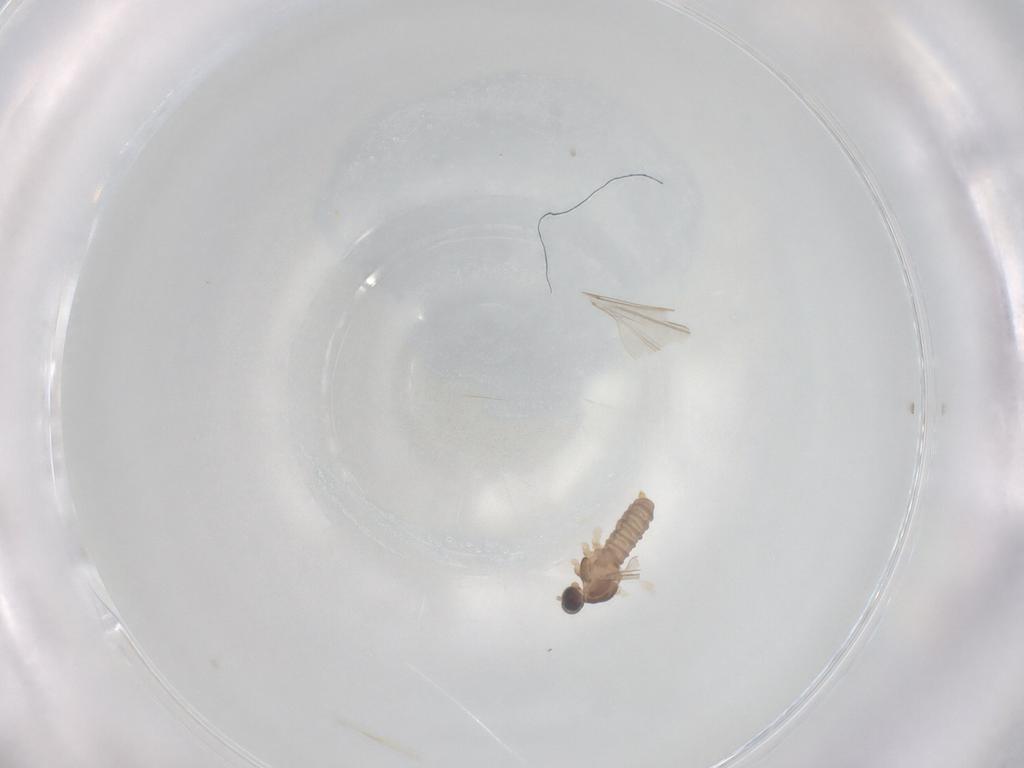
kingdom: Animalia
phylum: Arthropoda
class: Insecta
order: Diptera
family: Cecidomyiidae
